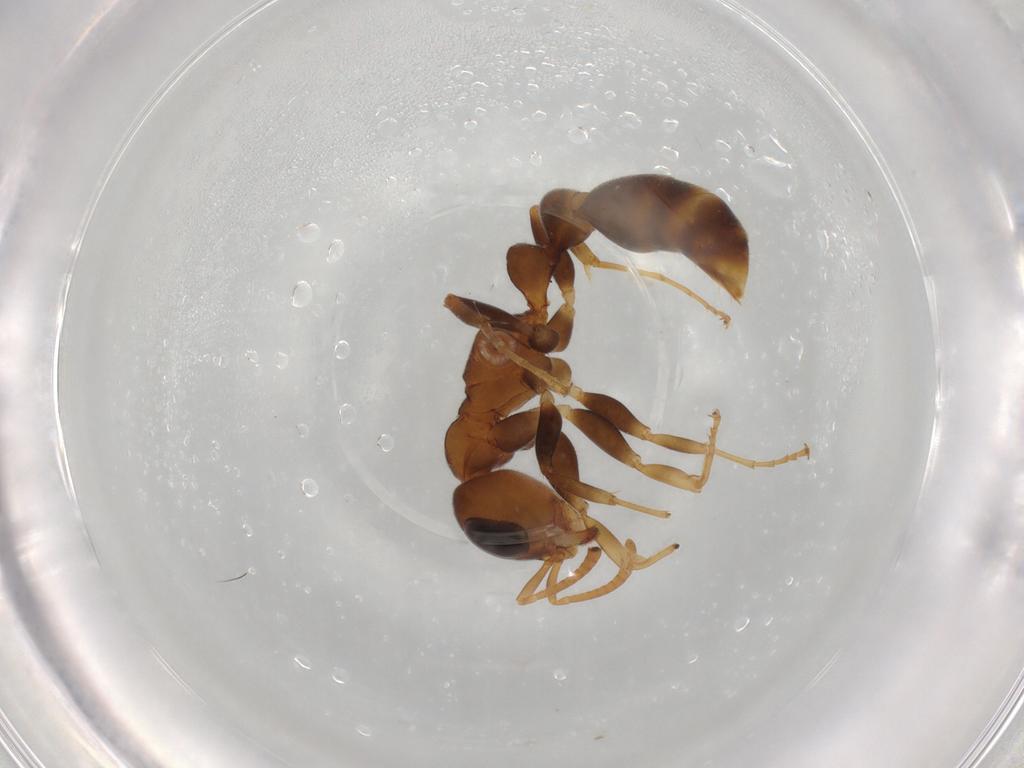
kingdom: Animalia
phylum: Arthropoda
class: Insecta
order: Hymenoptera
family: Formicidae
